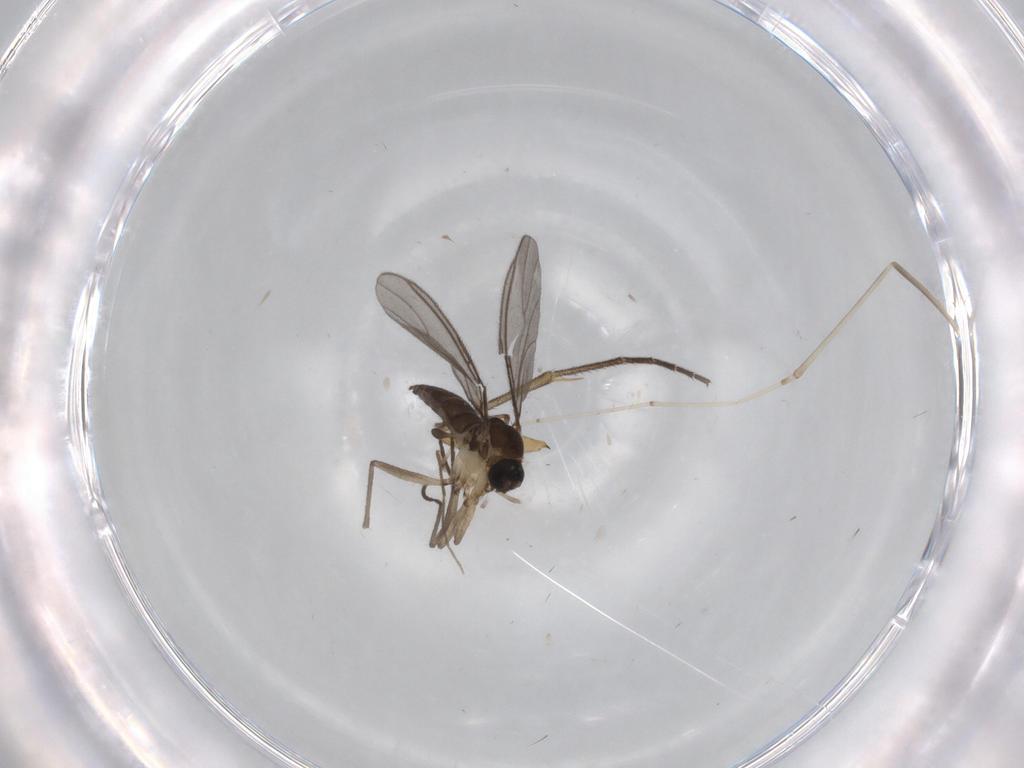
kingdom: Animalia
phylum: Arthropoda
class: Insecta
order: Diptera
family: Cecidomyiidae
